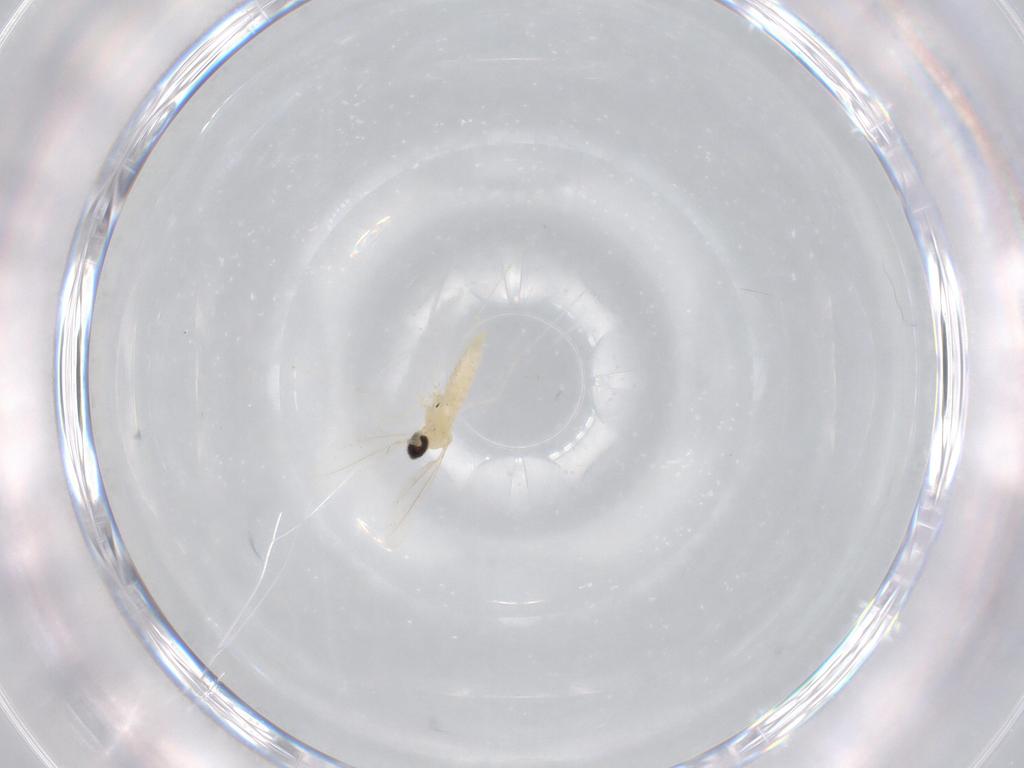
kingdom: Animalia
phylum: Arthropoda
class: Insecta
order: Diptera
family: Cecidomyiidae
